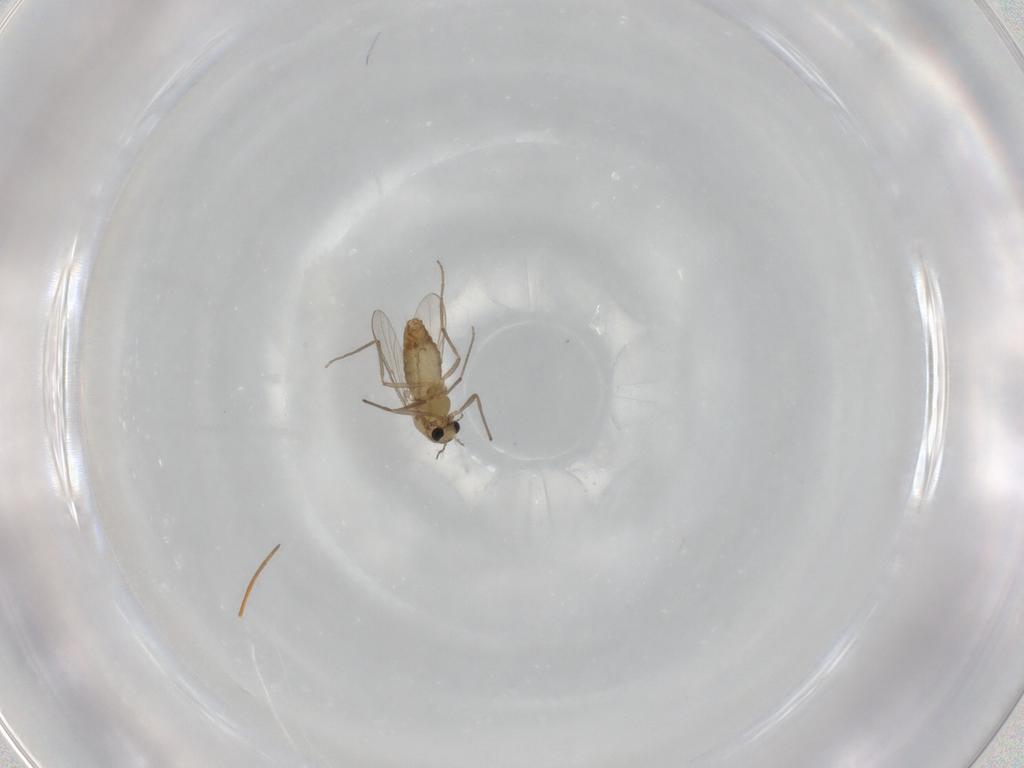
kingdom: Animalia
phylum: Arthropoda
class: Insecta
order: Diptera
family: Chironomidae
